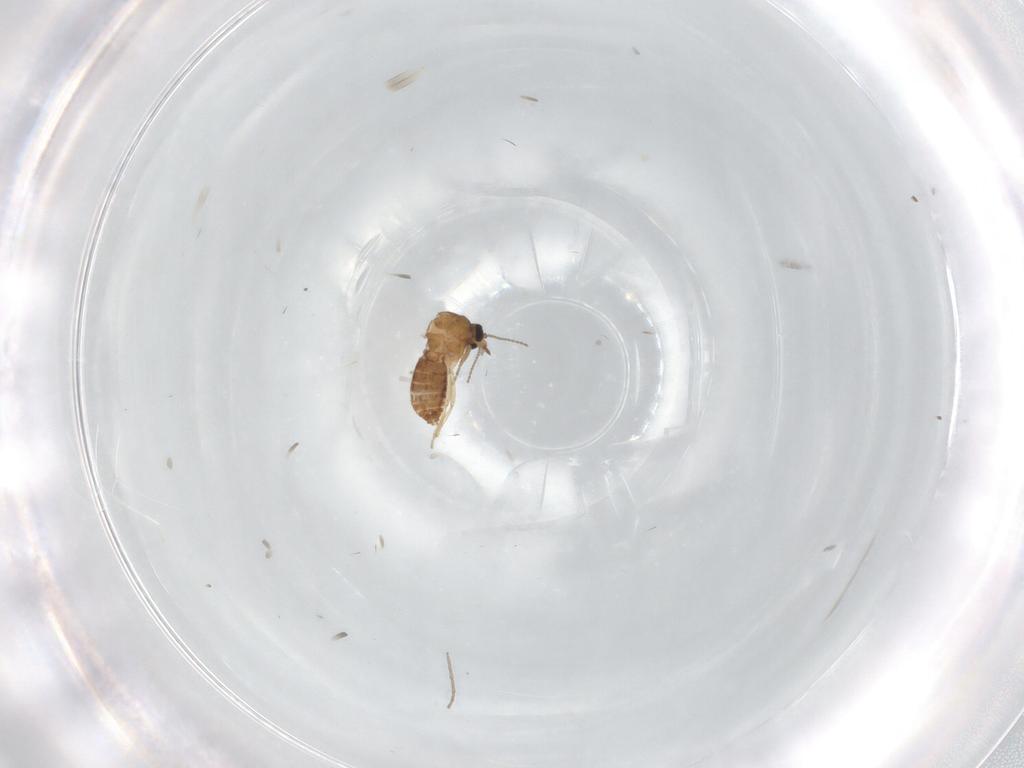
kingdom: Animalia
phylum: Arthropoda
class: Insecta
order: Diptera
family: Ceratopogonidae
